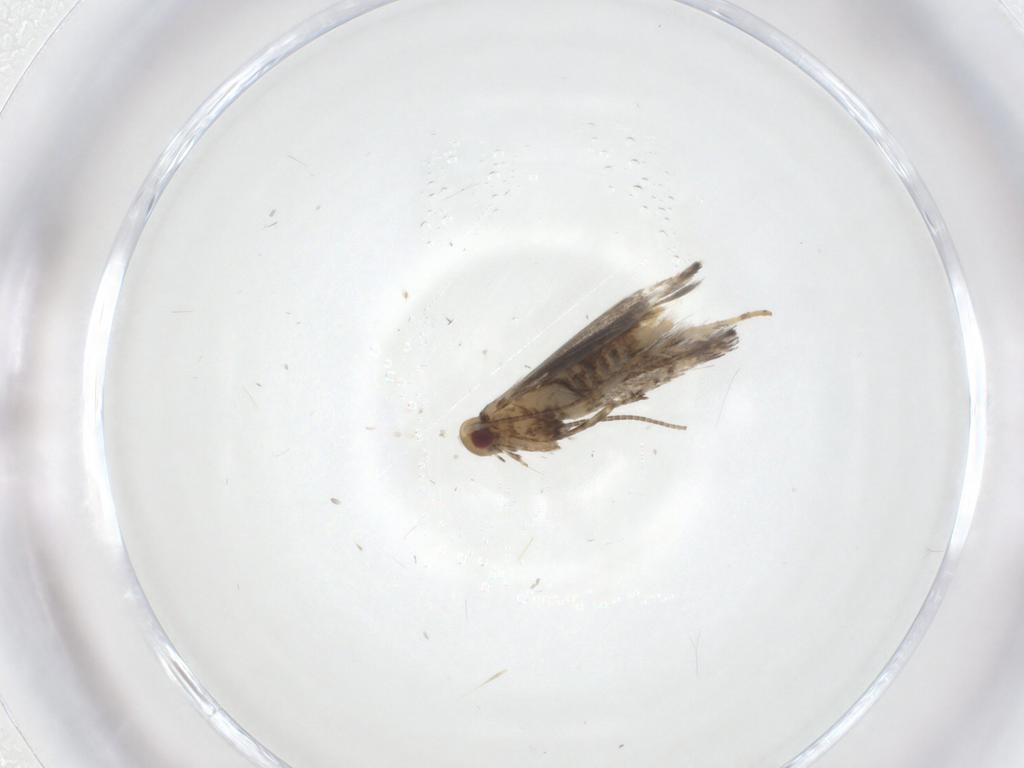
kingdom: Animalia
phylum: Arthropoda
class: Insecta
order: Lepidoptera
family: Gracillariidae
